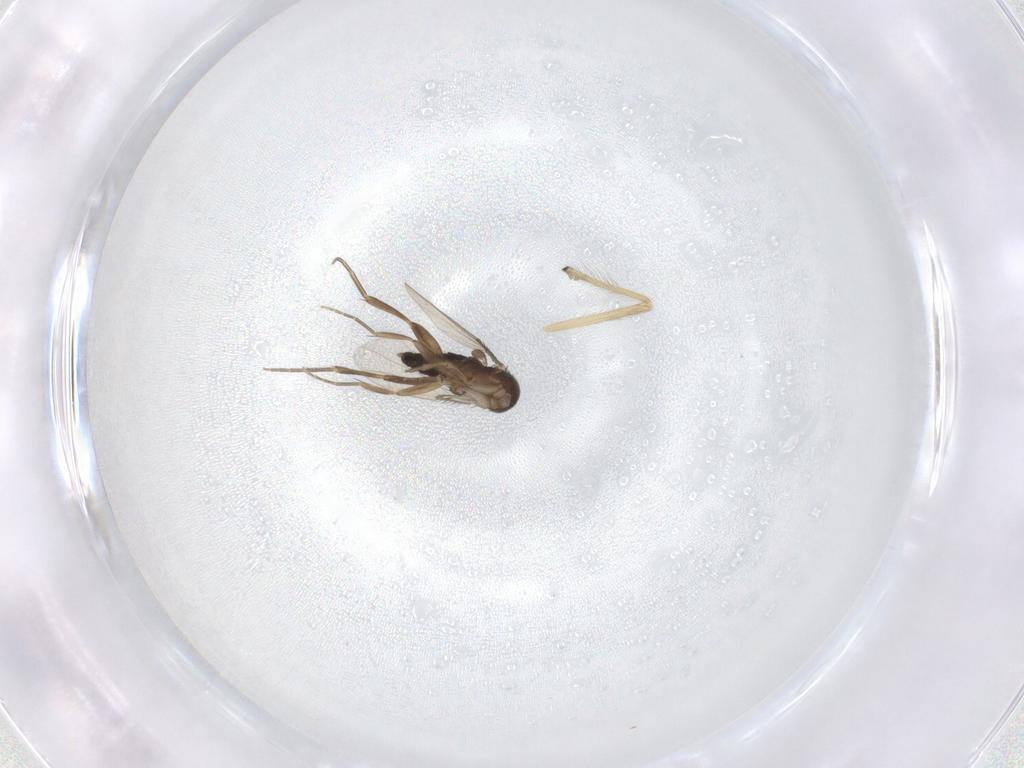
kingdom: Animalia
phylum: Arthropoda
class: Insecta
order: Diptera
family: Chironomidae
